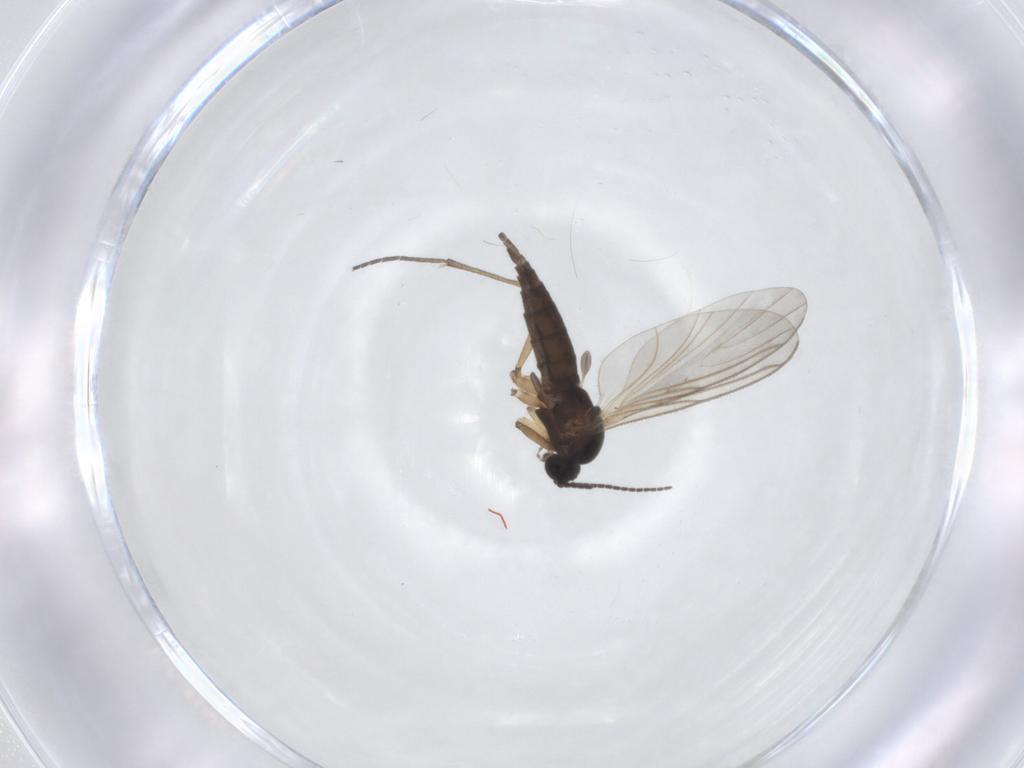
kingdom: Animalia
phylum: Arthropoda
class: Insecta
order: Diptera
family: Sciaridae
